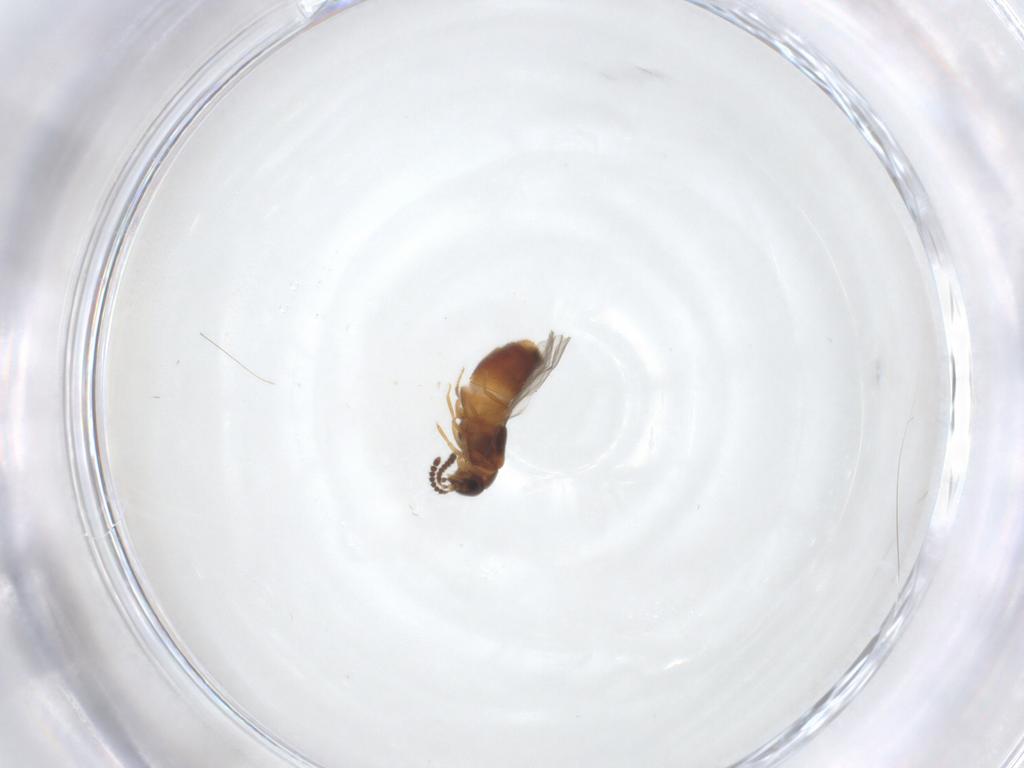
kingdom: Animalia
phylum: Arthropoda
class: Insecta
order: Coleoptera
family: Staphylinidae
